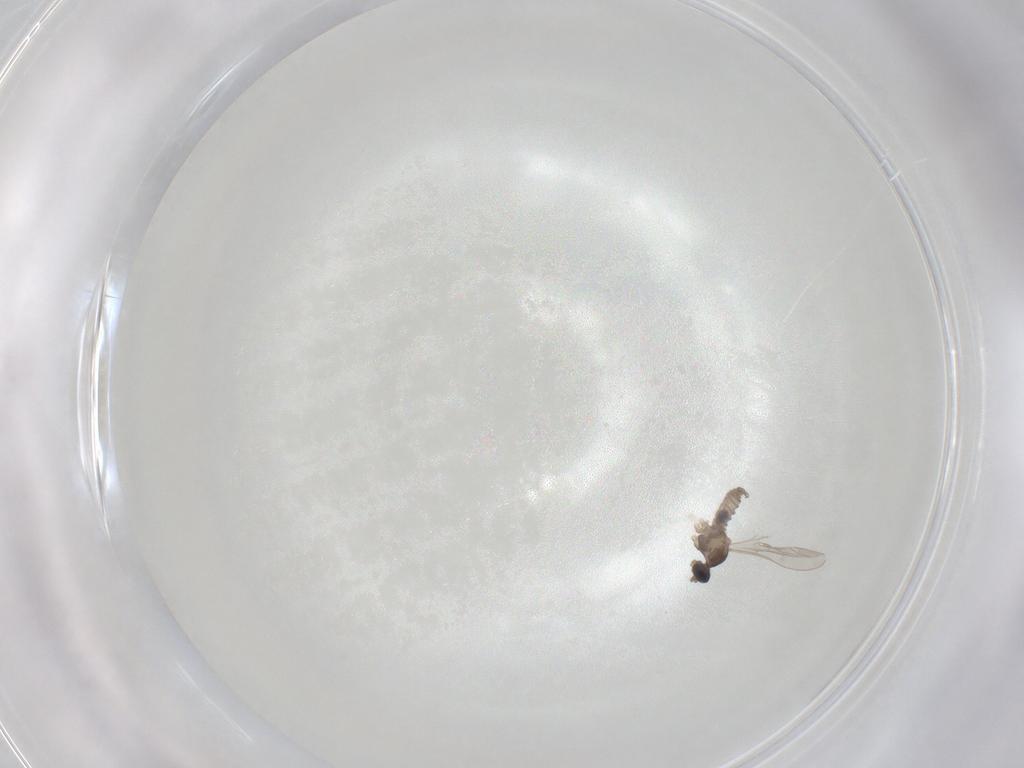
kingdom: Animalia
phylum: Arthropoda
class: Insecta
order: Diptera
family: Cecidomyiidae
